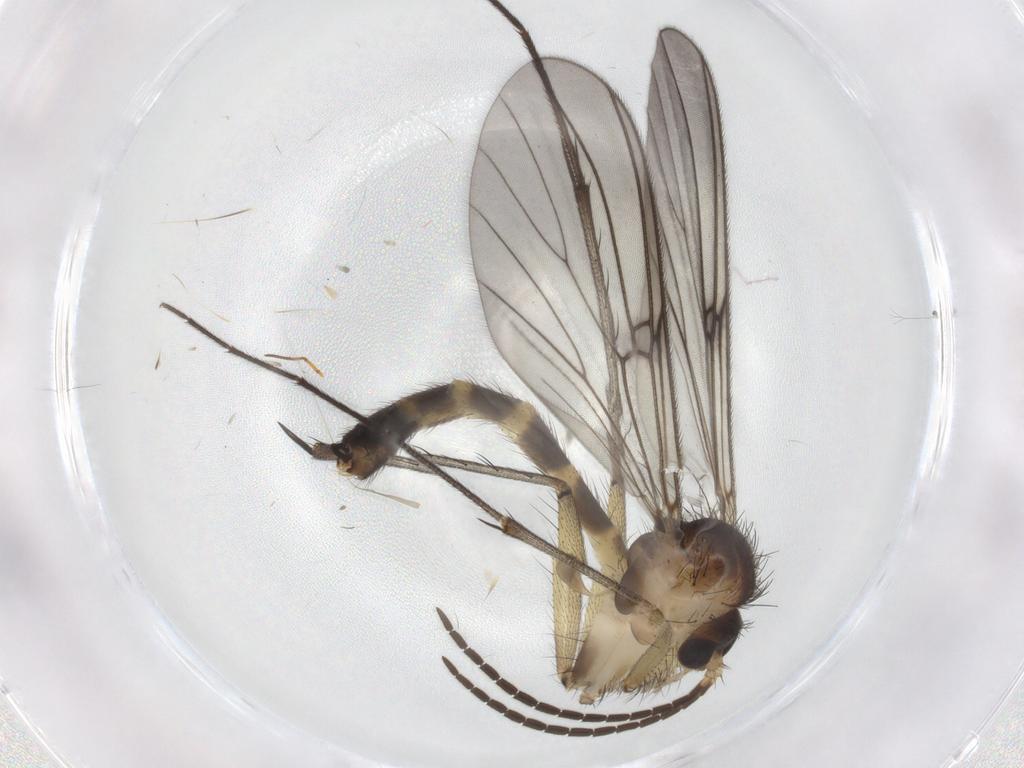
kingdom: Animalia
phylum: Arthropoda
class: Insecta
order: Diptera
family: Mycetophilidae
